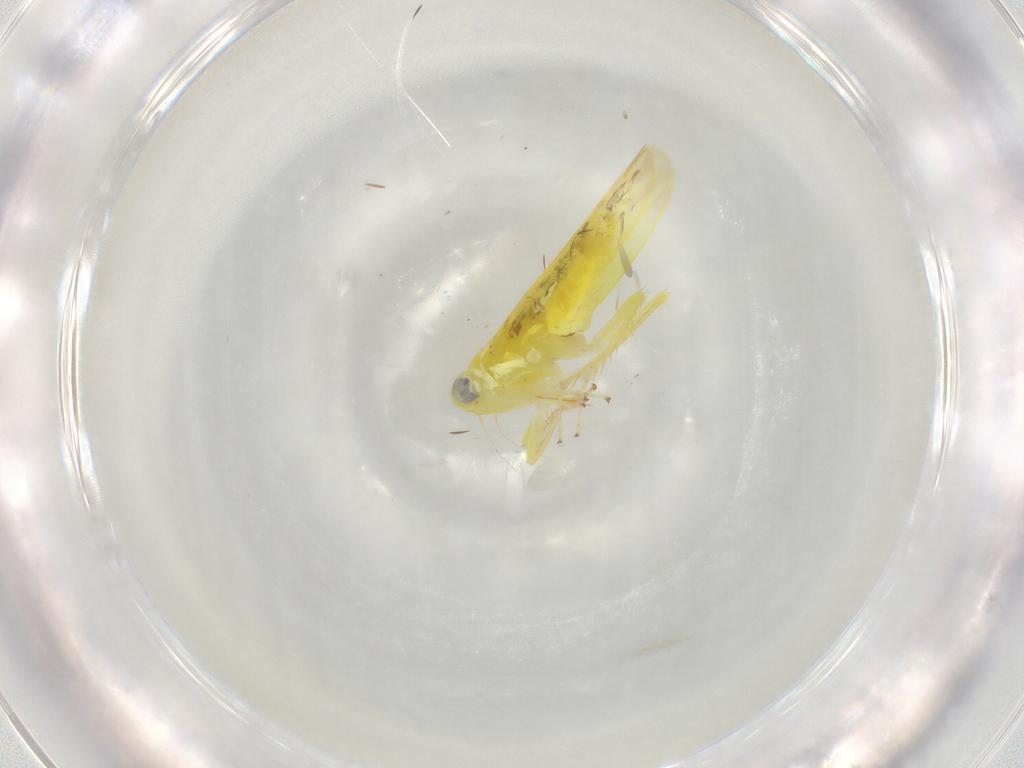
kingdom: Animalia
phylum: Arthropoda
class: Insecta
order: Hemiptera
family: Cicadellidae
